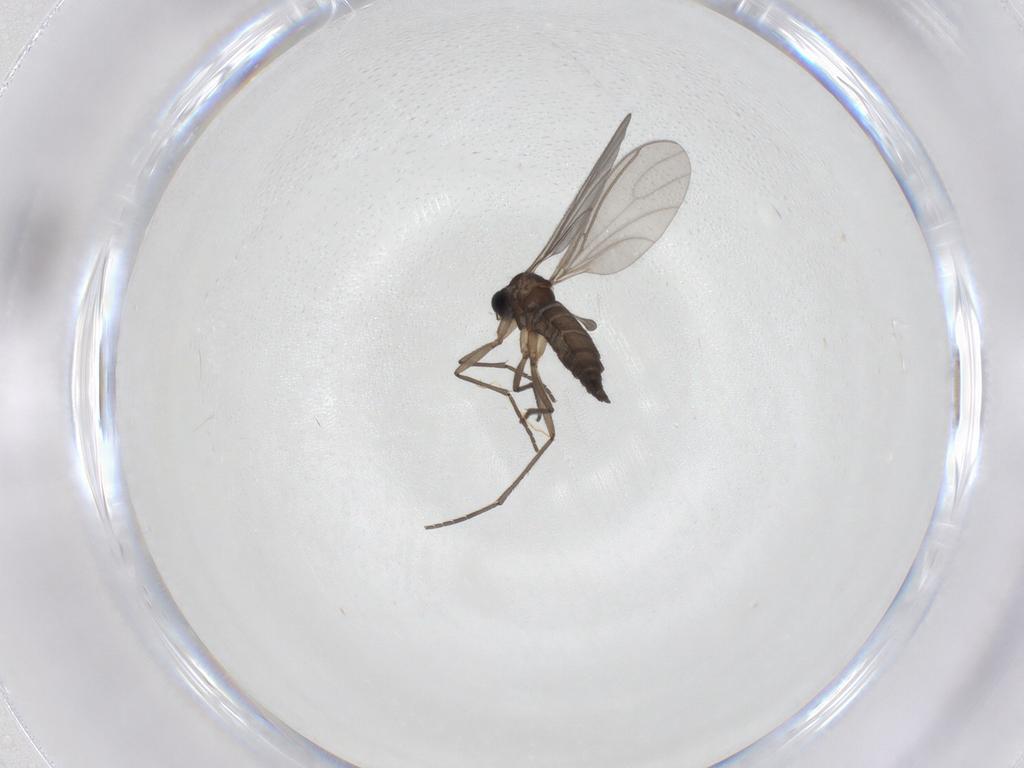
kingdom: Animalia
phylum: Arthropoda
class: Insecta
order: Diptera
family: Sciaridae
